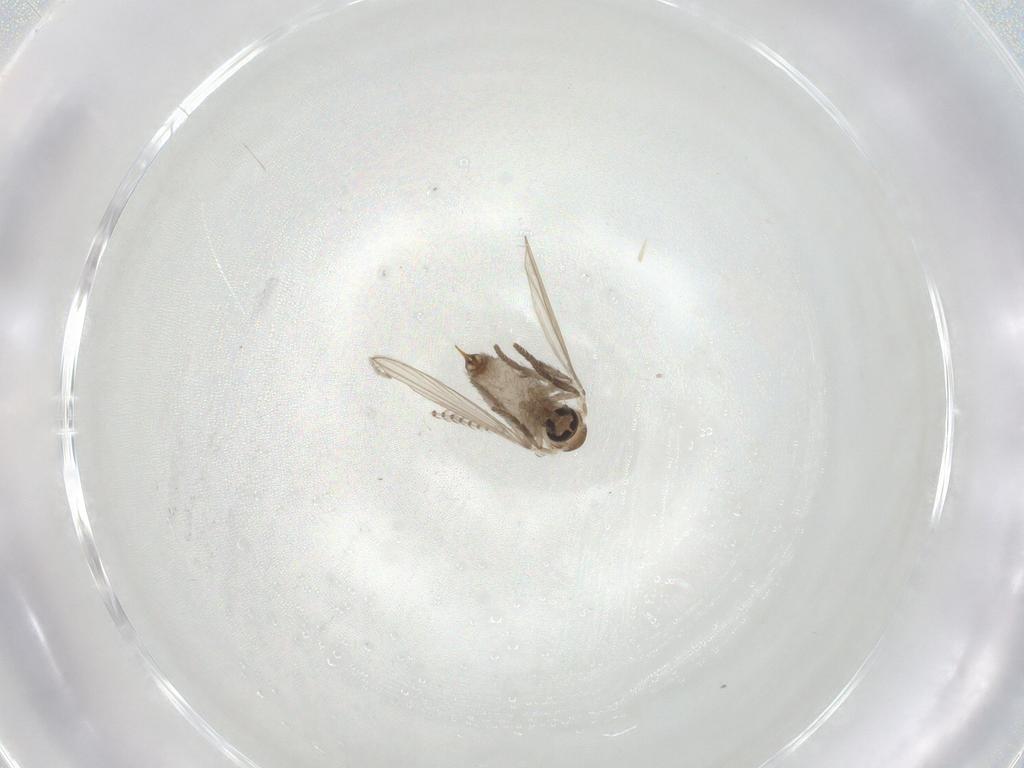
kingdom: Animalia
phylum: Arthropoda
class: Insecta
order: Diptera
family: Psychodidae
